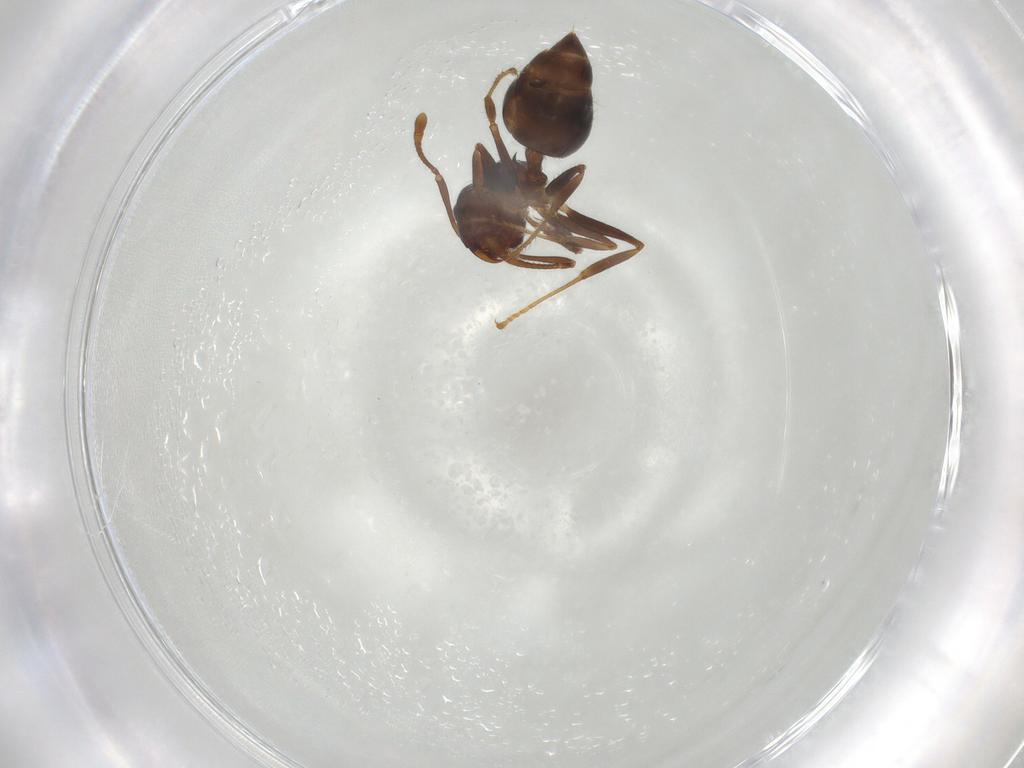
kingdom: Animalia
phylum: Arthropoda
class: Insecta
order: Hymenoptera
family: Formicidae
